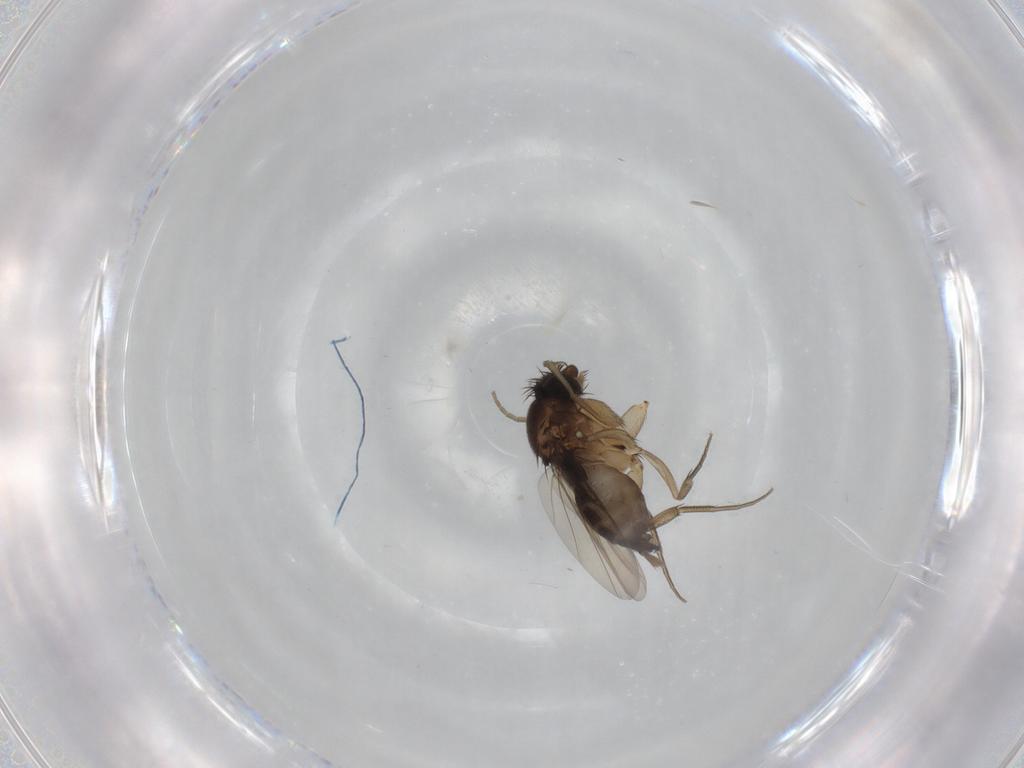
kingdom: Animalia
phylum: Arthropoda
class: Insecta
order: Diptera
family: Phoridae
